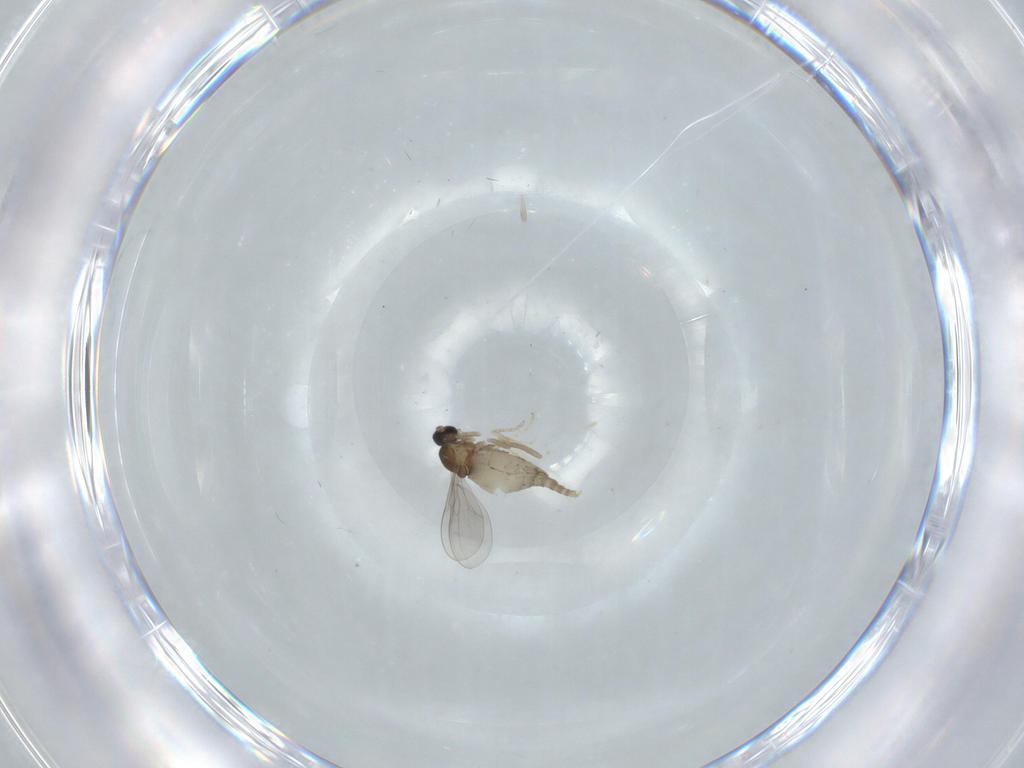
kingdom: Animalia
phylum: Arthropoda
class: Insecta
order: Diptera
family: Cecidomyiidae
